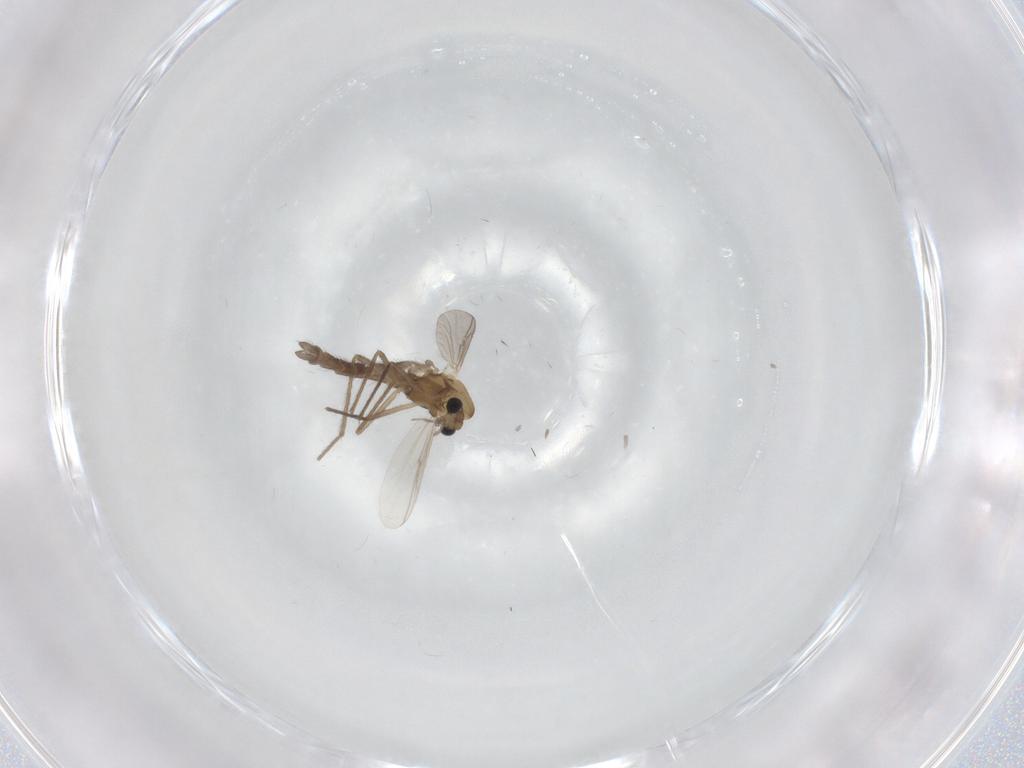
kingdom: Animalia
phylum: Arthropoda
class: Insecta
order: Diptera
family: Chironomidae
